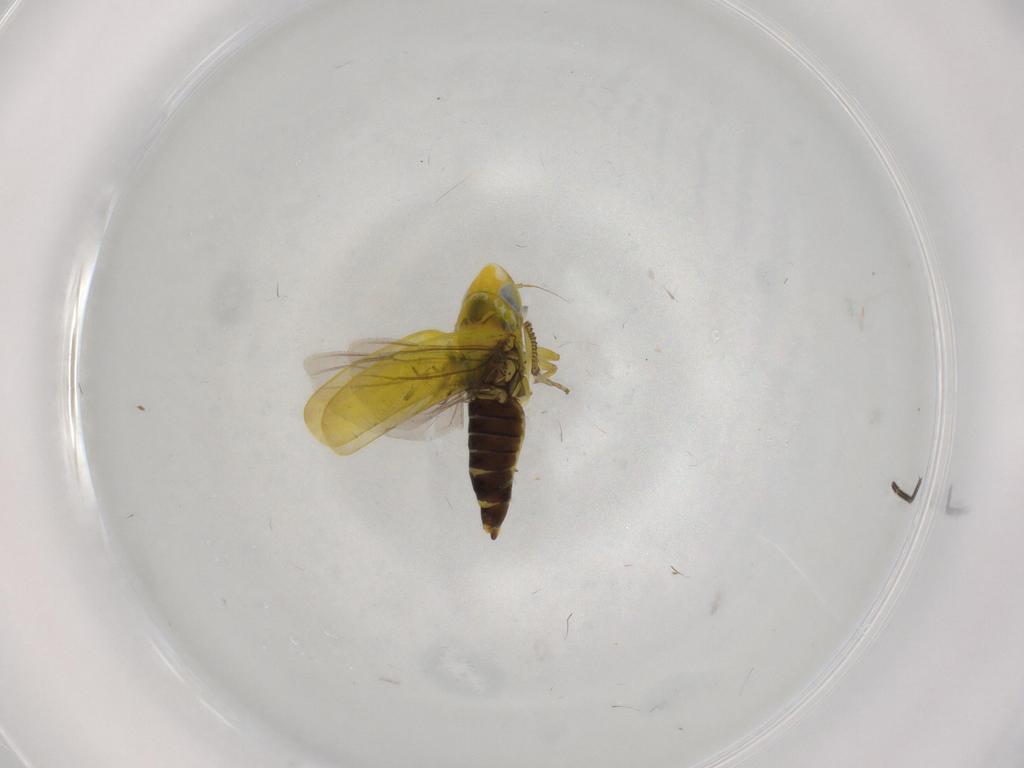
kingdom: Animalia
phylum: Arthropoda
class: Insecta
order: Hemiptera
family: Cicadellidae
